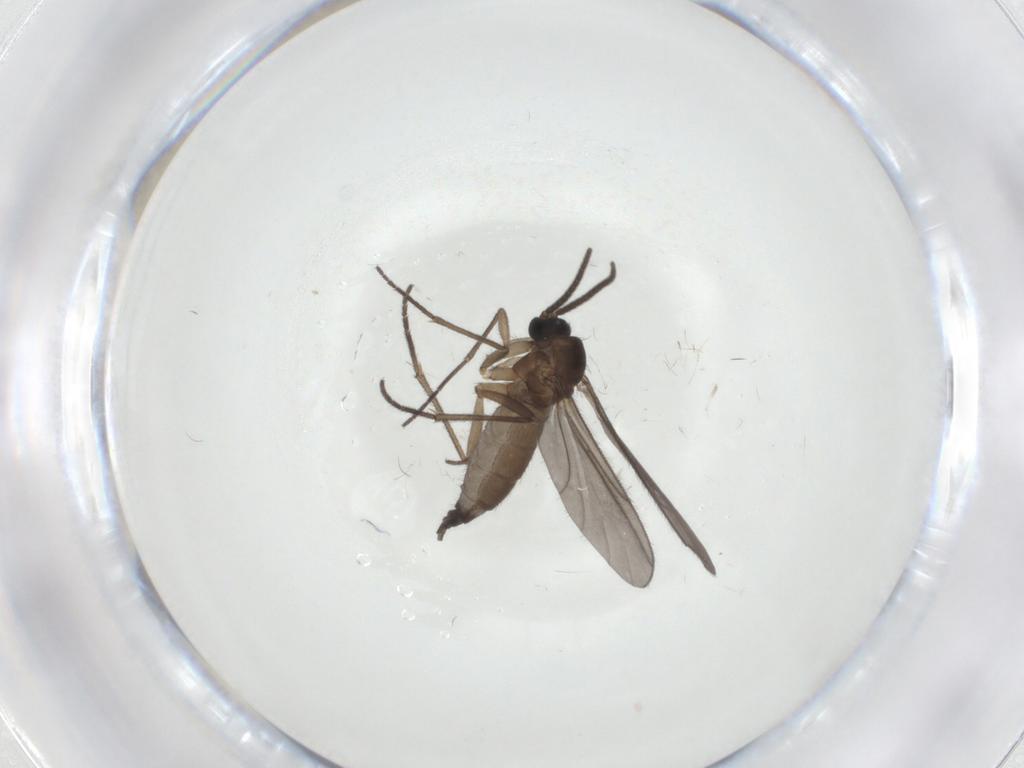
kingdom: Animalia
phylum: Arthropoda
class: Insecta
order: Diptera
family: Sciaridae
